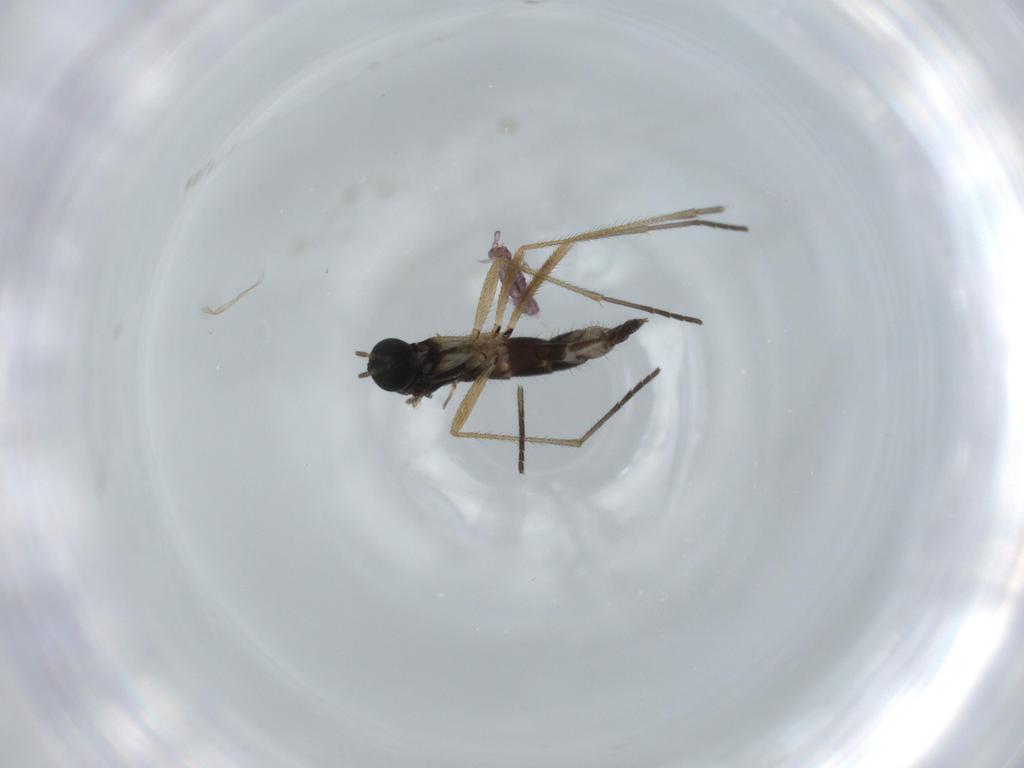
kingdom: Animalia
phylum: Arthropoda
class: Insecta
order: Diptera
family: Sciaridae
